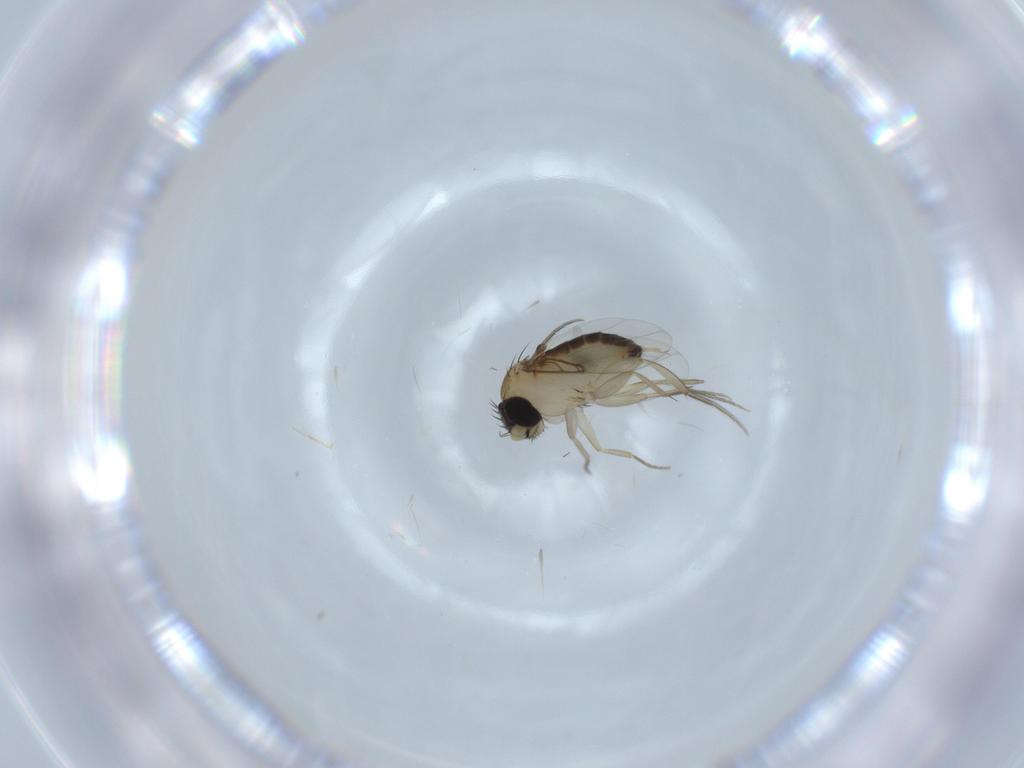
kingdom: Animalia
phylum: Arthropoda
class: Insecta
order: Diptera
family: Phoridae
